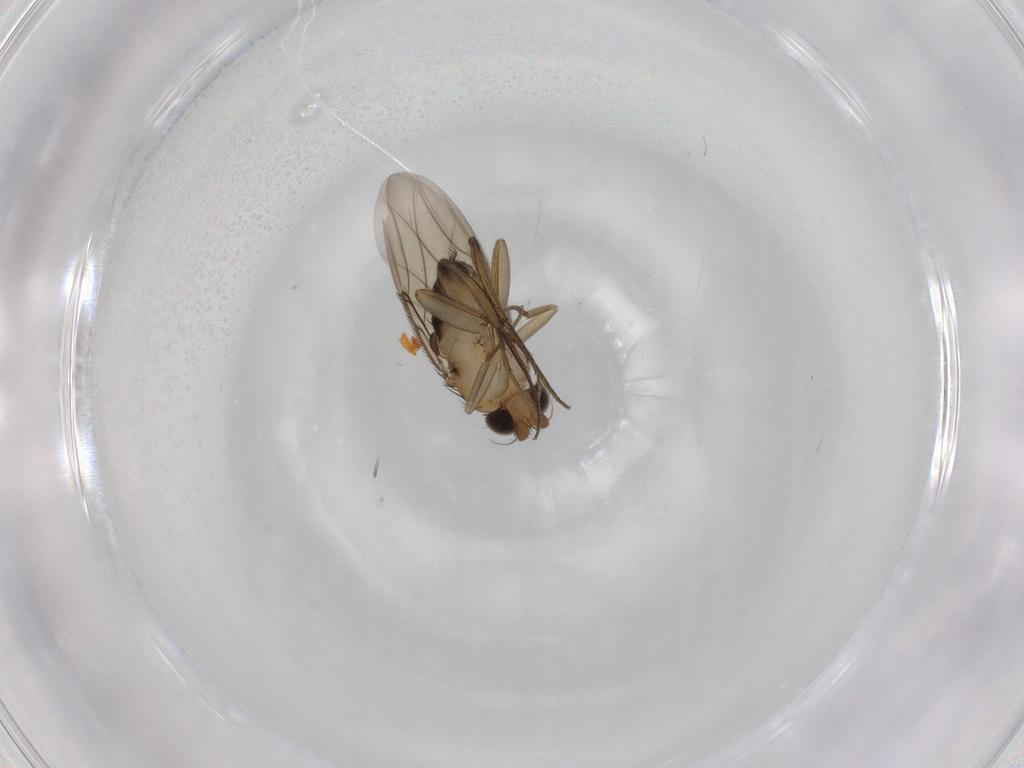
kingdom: Animalia
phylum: Arthropoda
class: Insecta
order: Diptera
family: Phoridae
